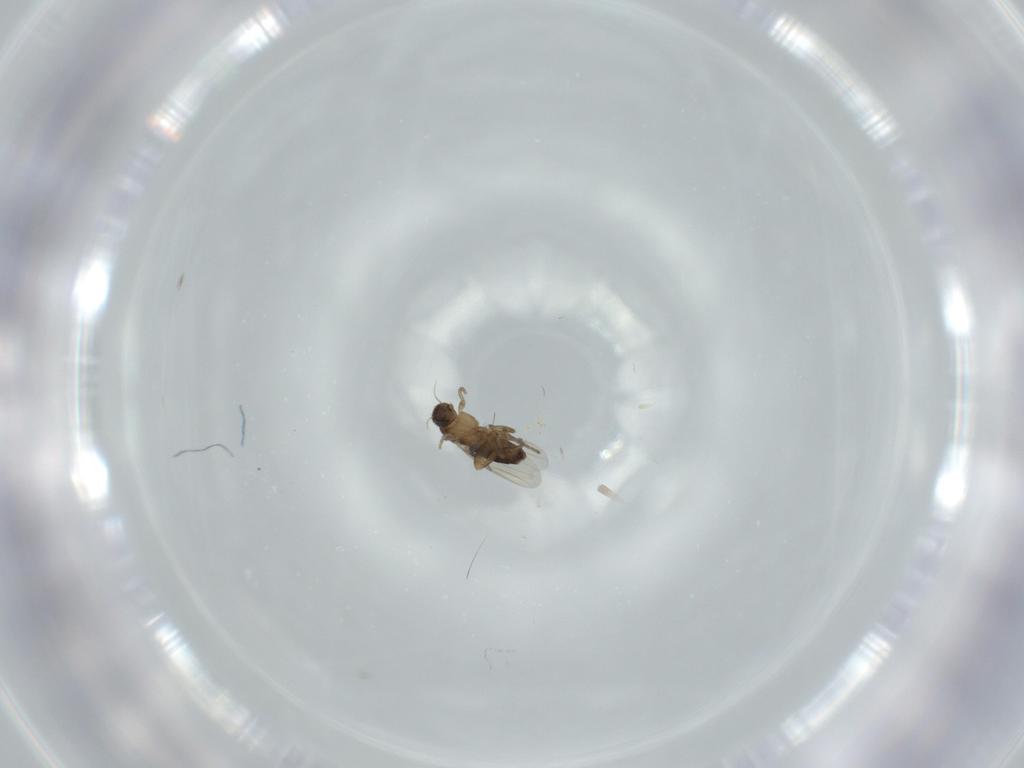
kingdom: Animalia
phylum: Arthropoda
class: Insecta
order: Diptera
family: Phoridae
